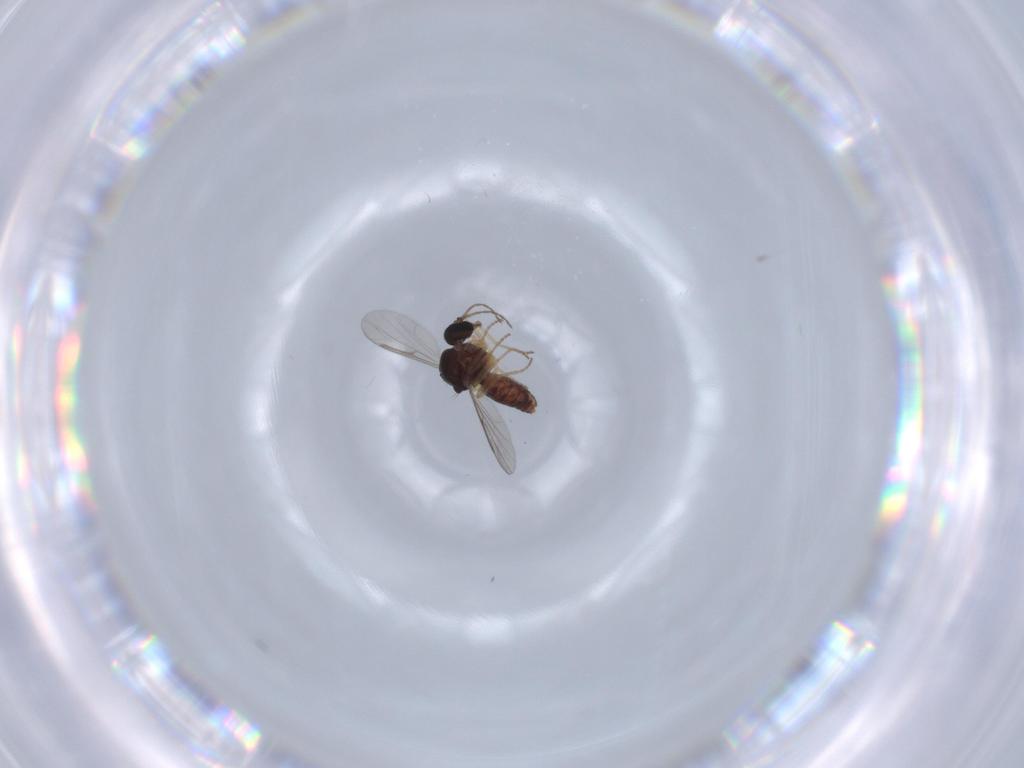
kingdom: Animalia
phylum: Arthropoda
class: Insecta
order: Diptera
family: Ceratopogonidae
